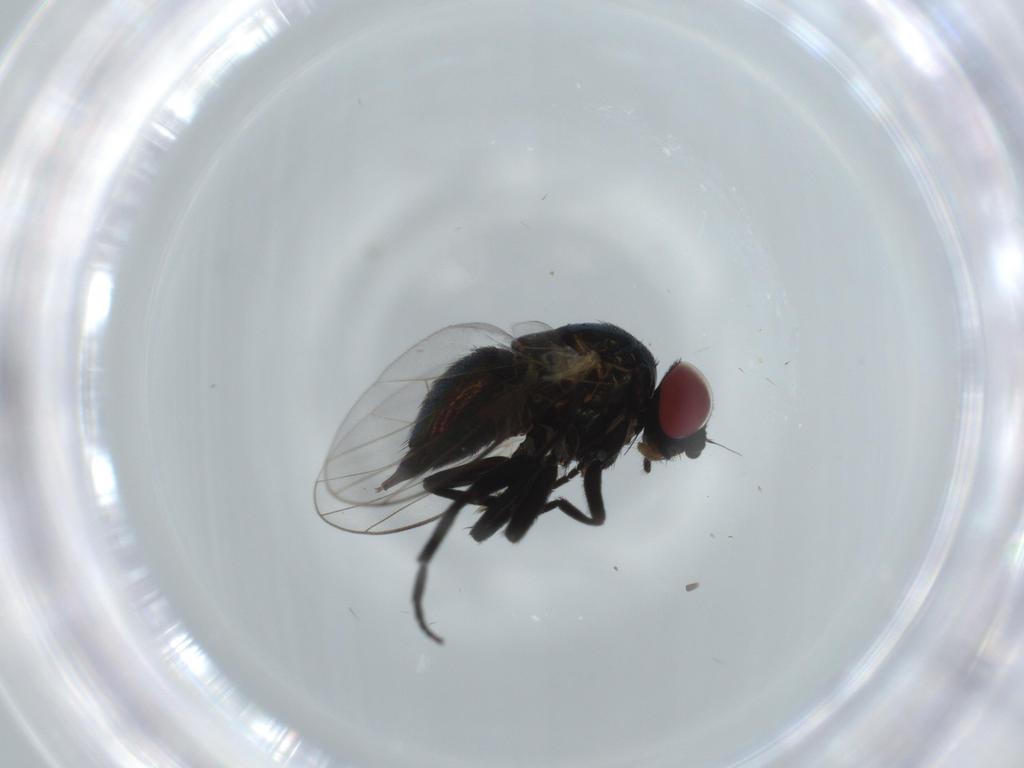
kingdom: Animalia
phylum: Arthropoda
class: Insecta
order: Diptera
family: Agromyzidae
